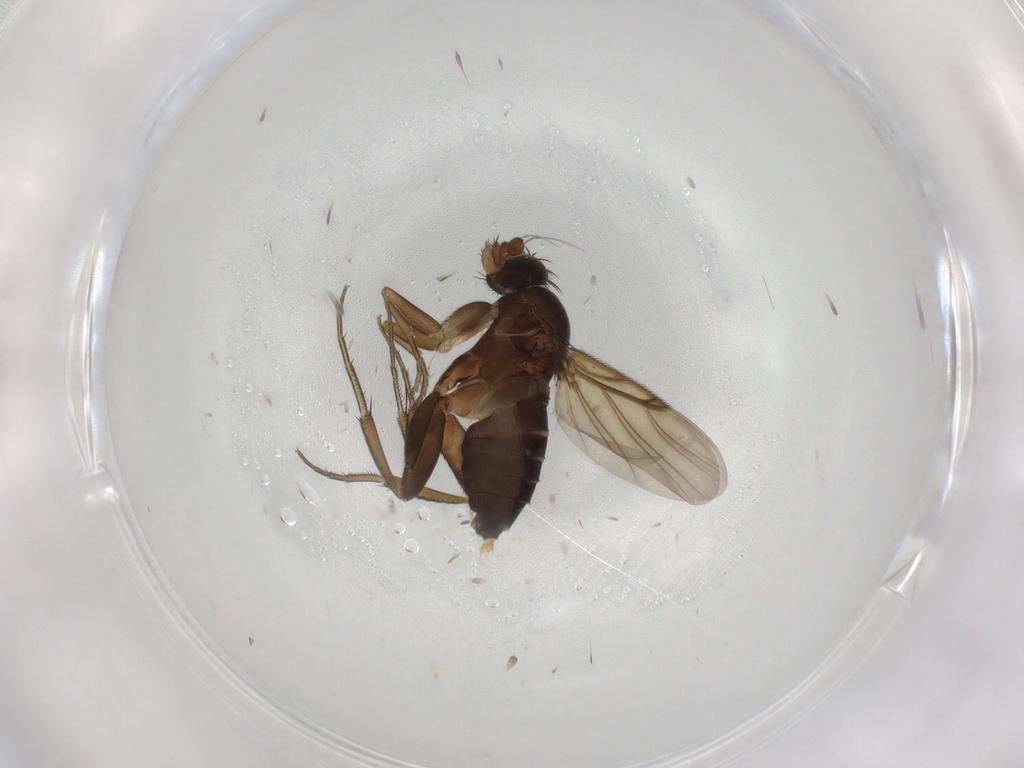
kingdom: Animalia
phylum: Arthropoda
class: Insecta
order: Diptera
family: Phoridae
